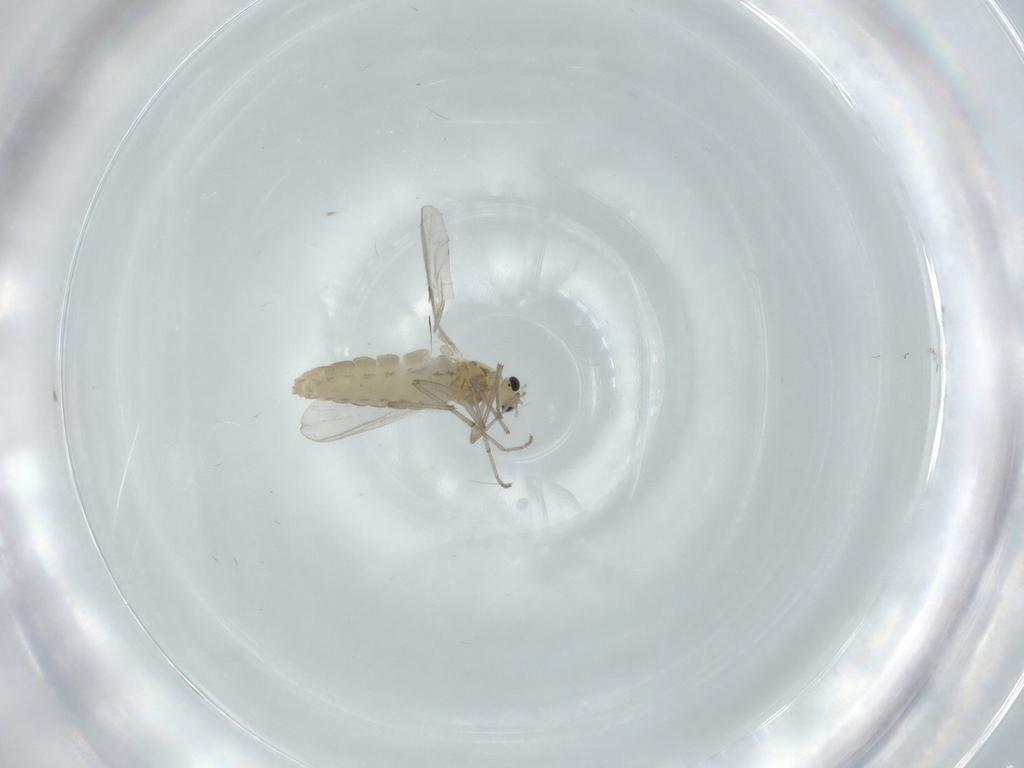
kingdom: Animalia
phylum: Arthropoda
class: Insecta
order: Diptera
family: Chironomidae
